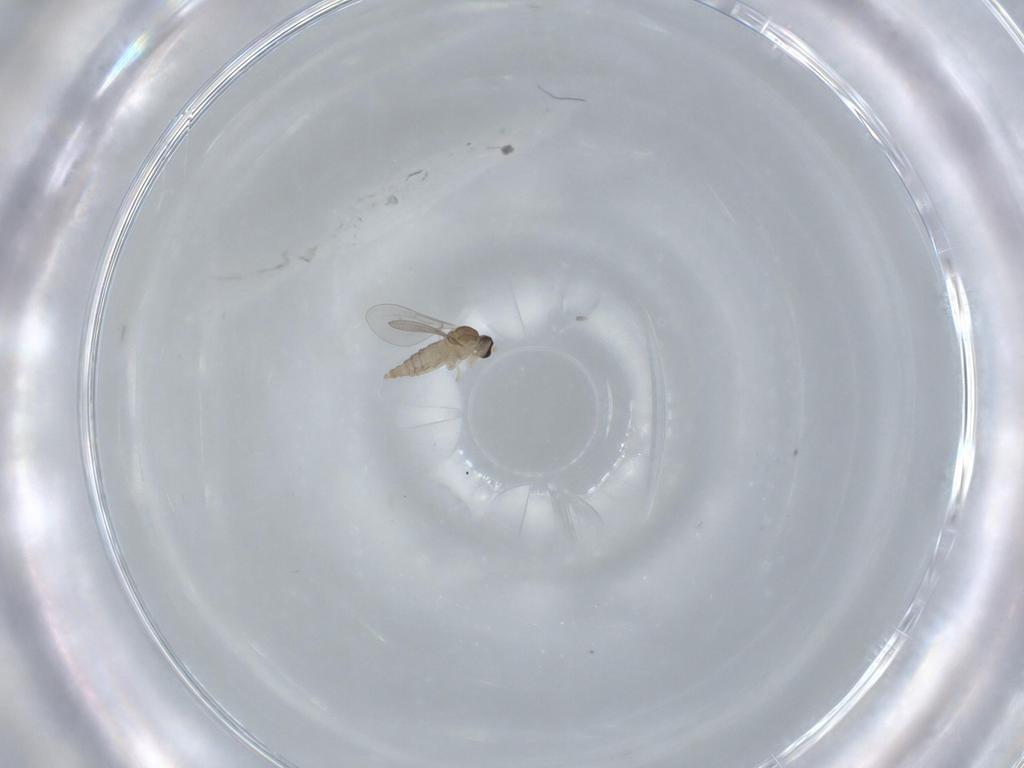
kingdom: Animalia
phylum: Arthropoda
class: Insecta
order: Diptera
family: Cecidomyiidae
